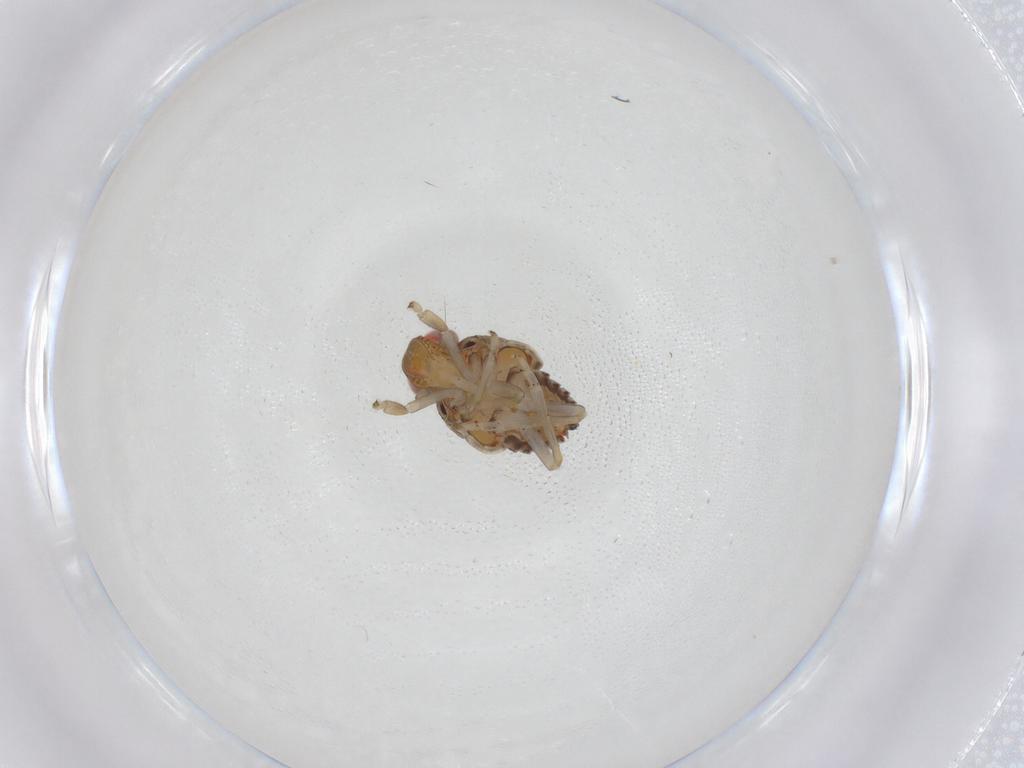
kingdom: Animalia
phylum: Arthropoda
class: Insecta
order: Hemiptera
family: Issidae
